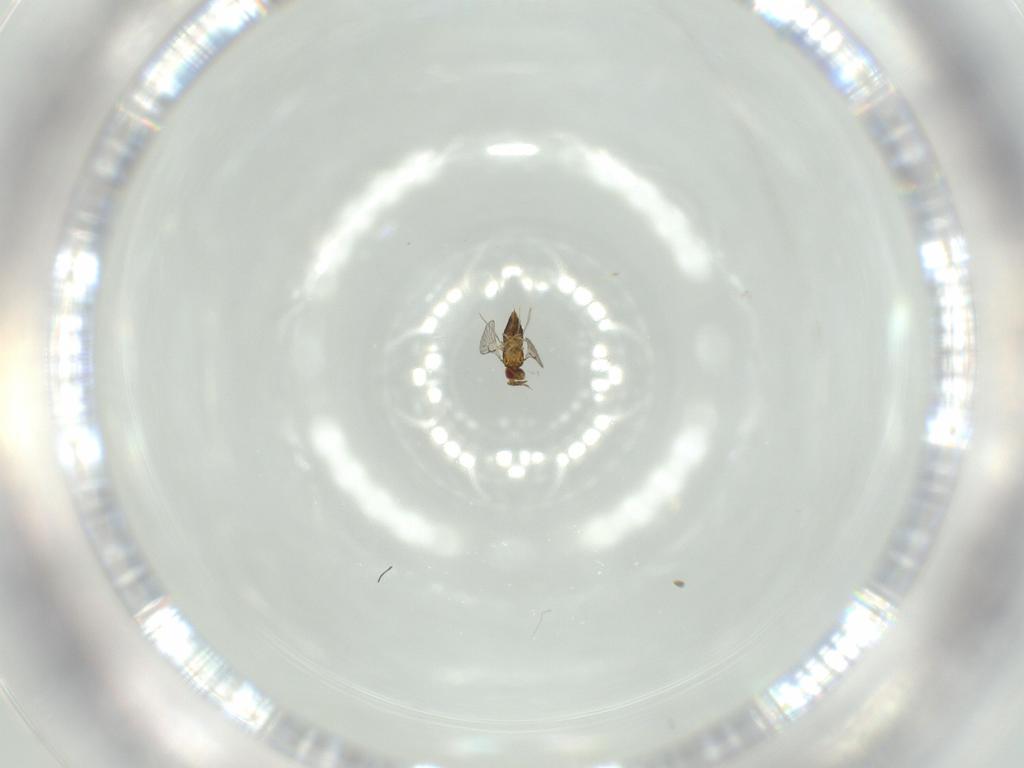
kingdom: Animalia
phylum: Arthropoda
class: Insecta
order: Hymenoptera
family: Trichogrammatidae
